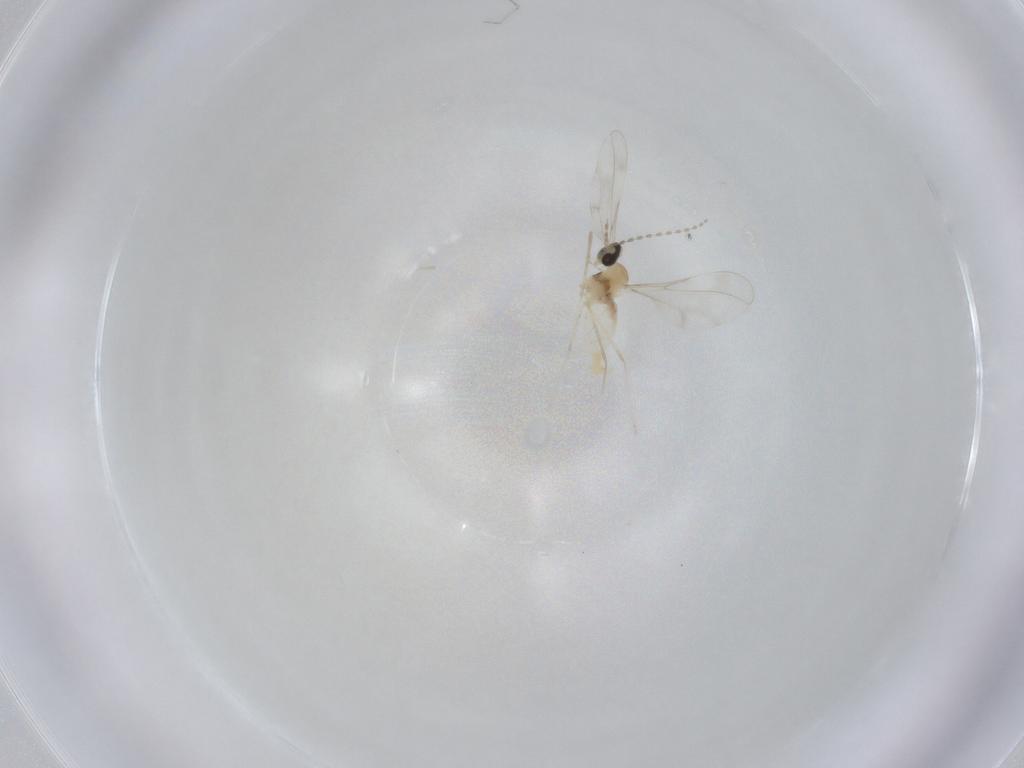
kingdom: Animalia
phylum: Arthropoda
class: Insecta
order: Diptera
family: Cecidomyiidae
